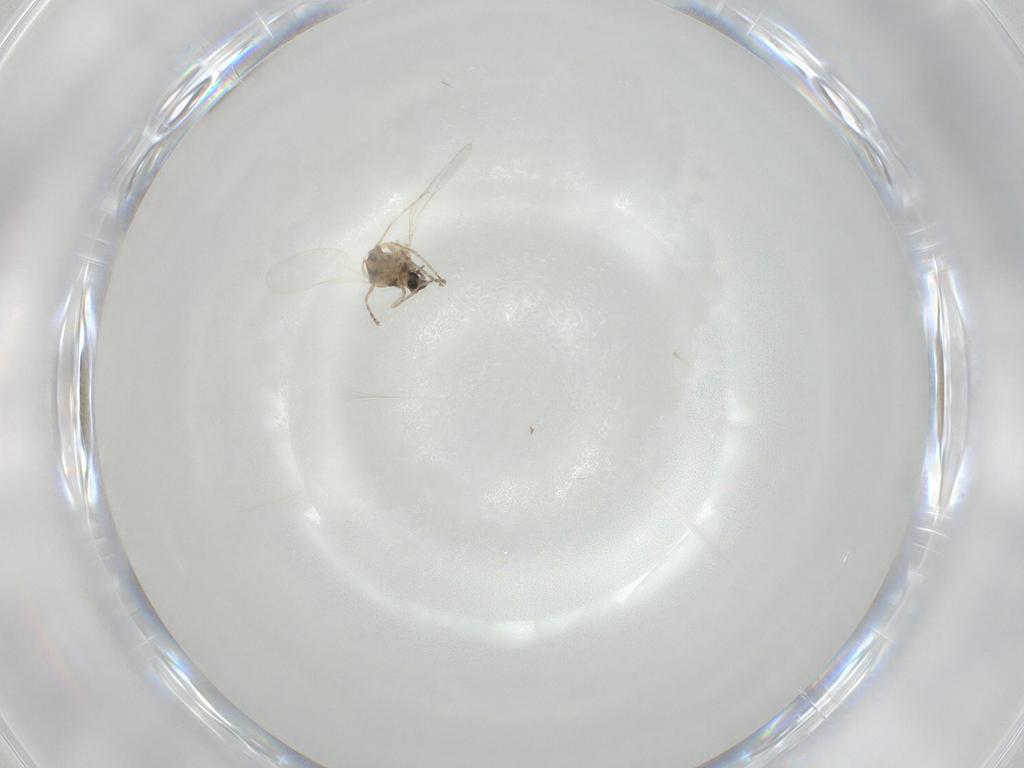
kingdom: Animalia
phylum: Arthropoda
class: Insecta
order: Diptera
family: Cecidomyiidae
